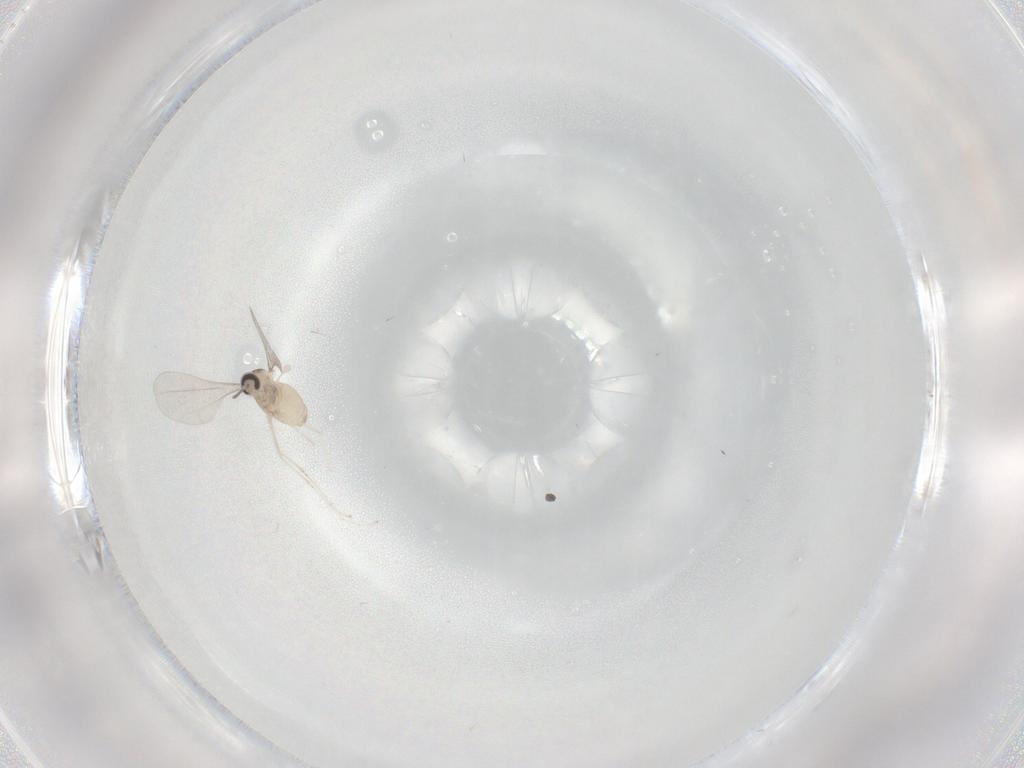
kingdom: Animalia
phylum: Arthropoda
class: Insecta
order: Diptera
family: Cecidomyiidae
